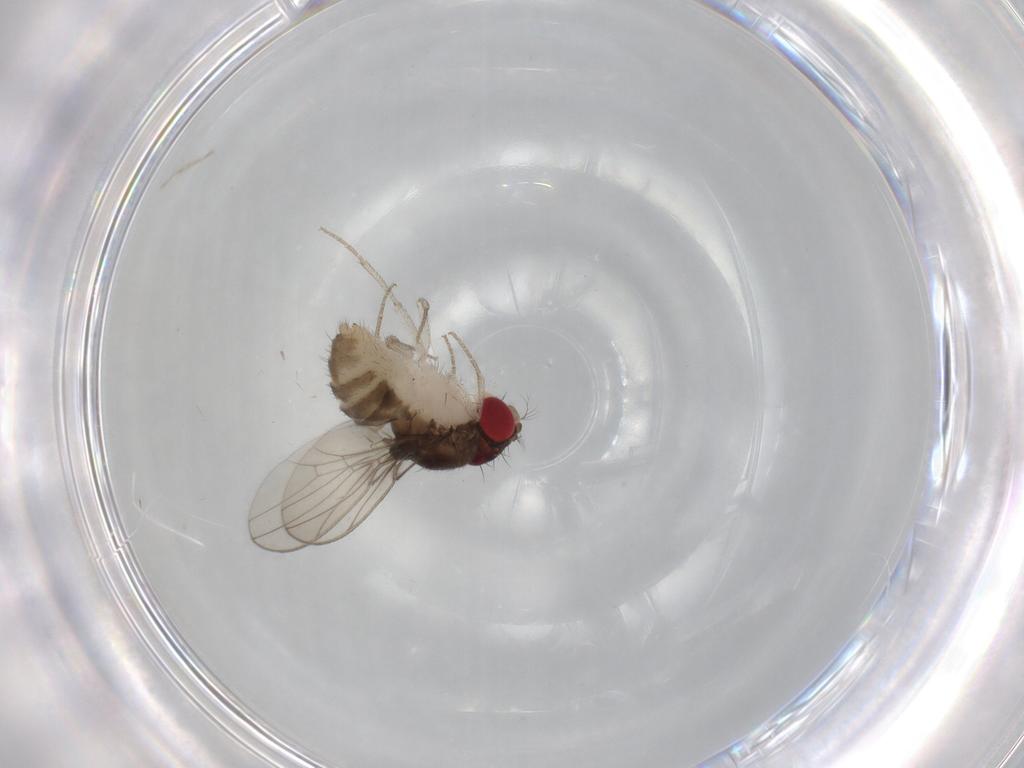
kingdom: Animalia
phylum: Arthropoda
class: Insecta
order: Diptera
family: Drosophilidae
